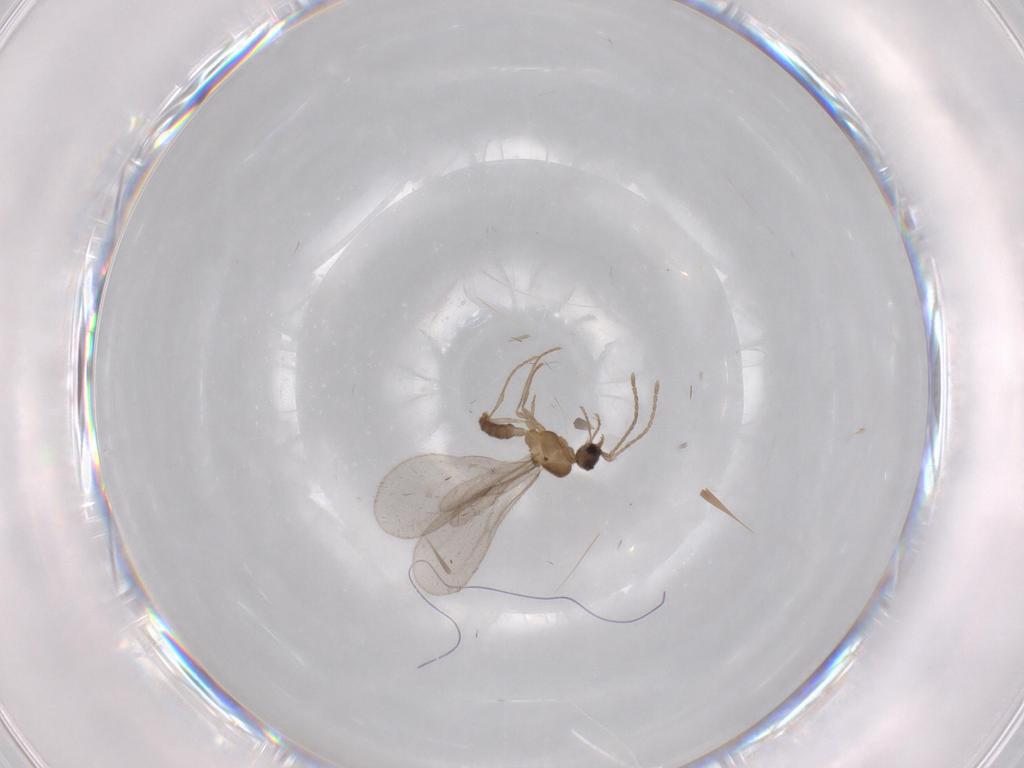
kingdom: Animalia
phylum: Arthropoda
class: Insecta
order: Hymenoptera
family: Formicidae
